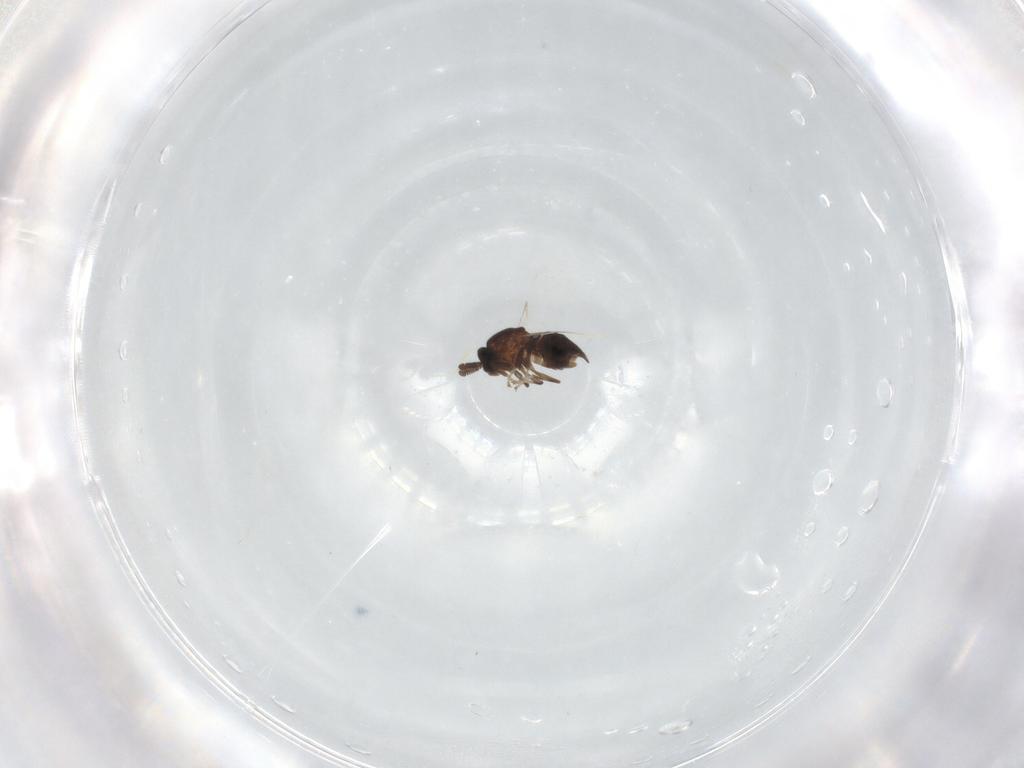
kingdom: Animalia
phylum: Arthropoda
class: Insecta
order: Diptera
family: Scatopsidae
